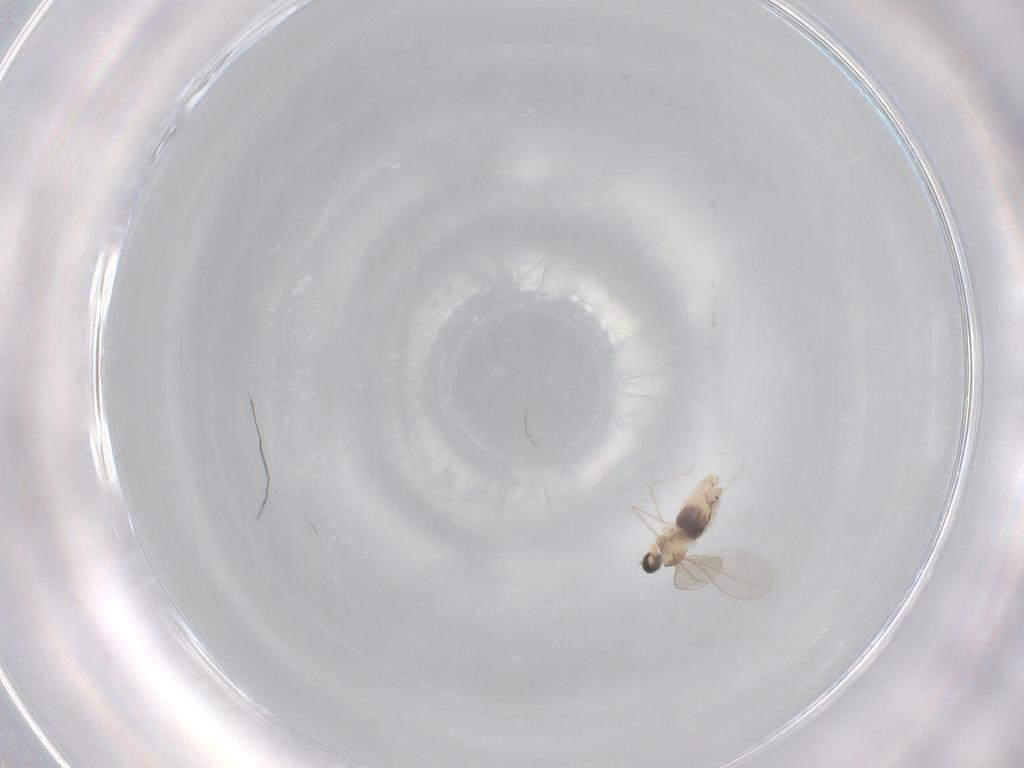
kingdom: Animalia
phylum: Arthropoda
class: Insecta
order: Diptera
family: Cecidomyiidae
